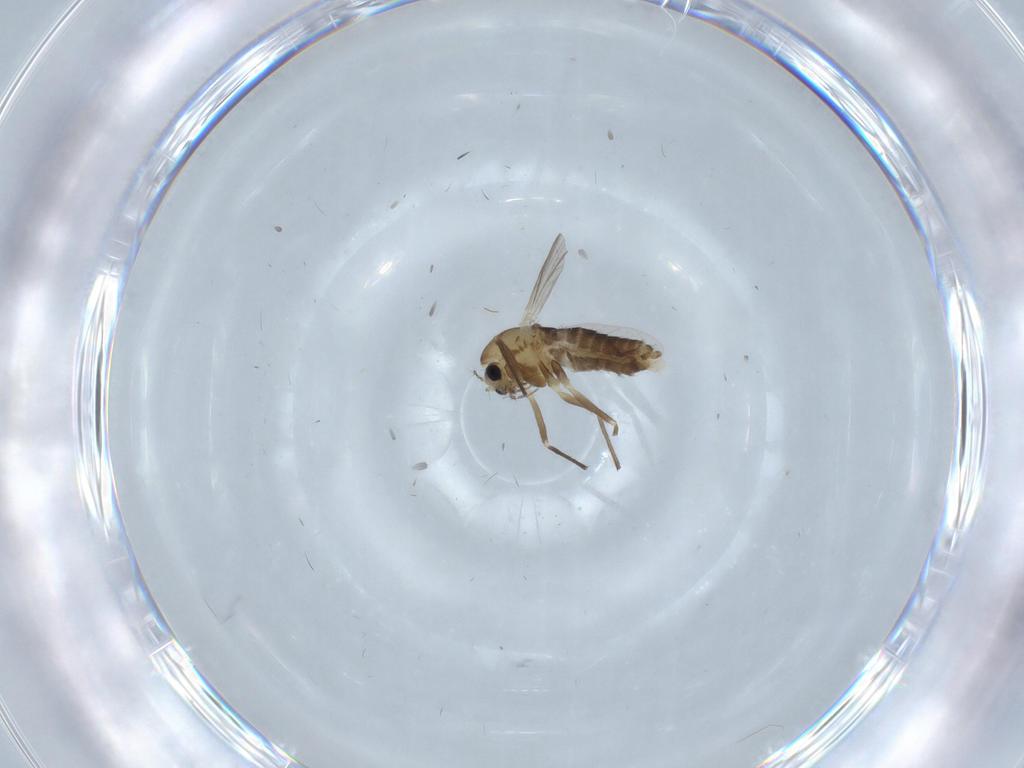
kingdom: Animalia
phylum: Arthropoda
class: Insecta
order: Diptera
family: Chironomidae
